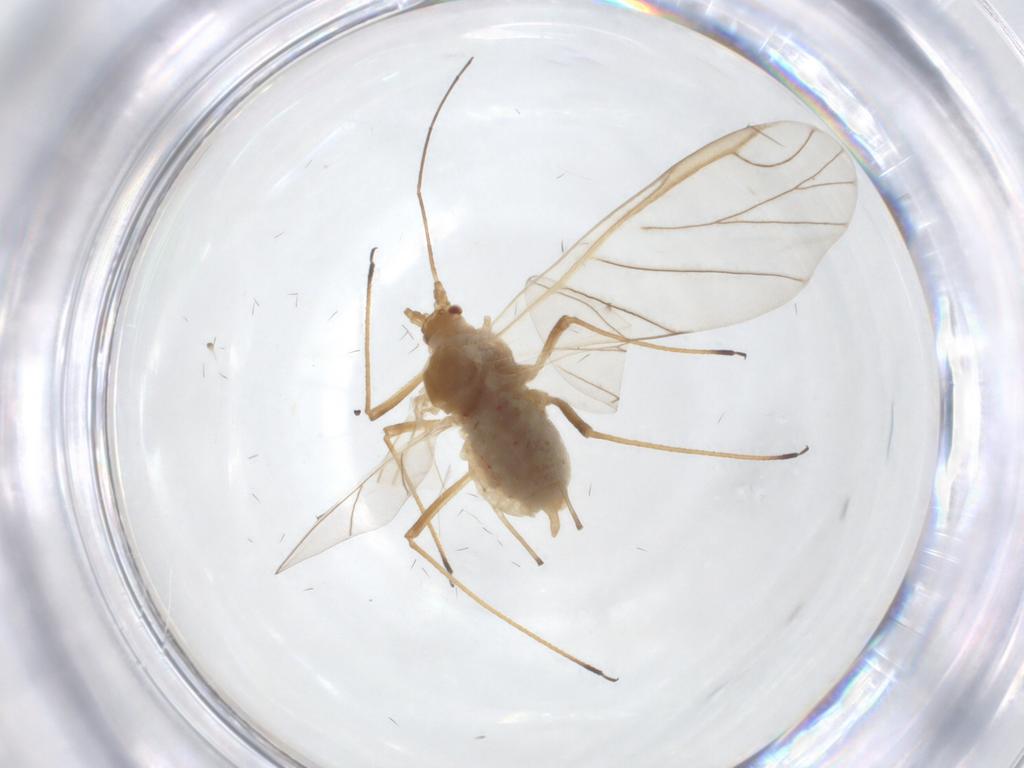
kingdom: Animalia
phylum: Arthropoda
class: Insecta
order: Hemiptera
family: Aphididae
